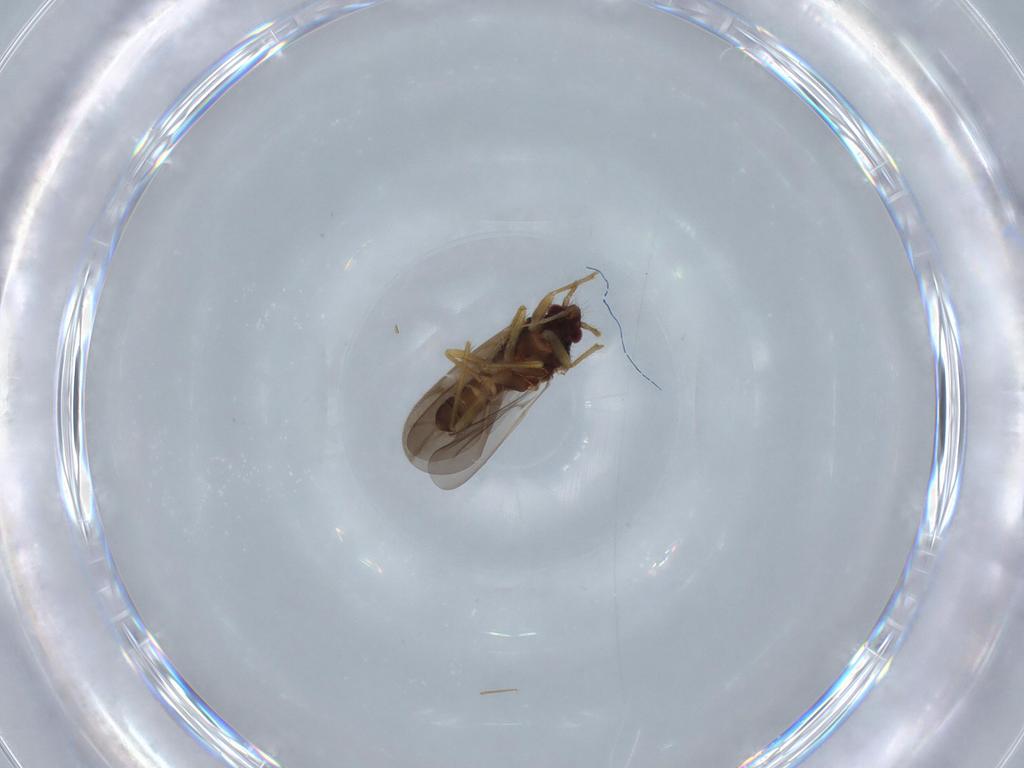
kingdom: Animalia
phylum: Arthropoda
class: Insecta
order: Hemiptera
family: Ceratocombidae
